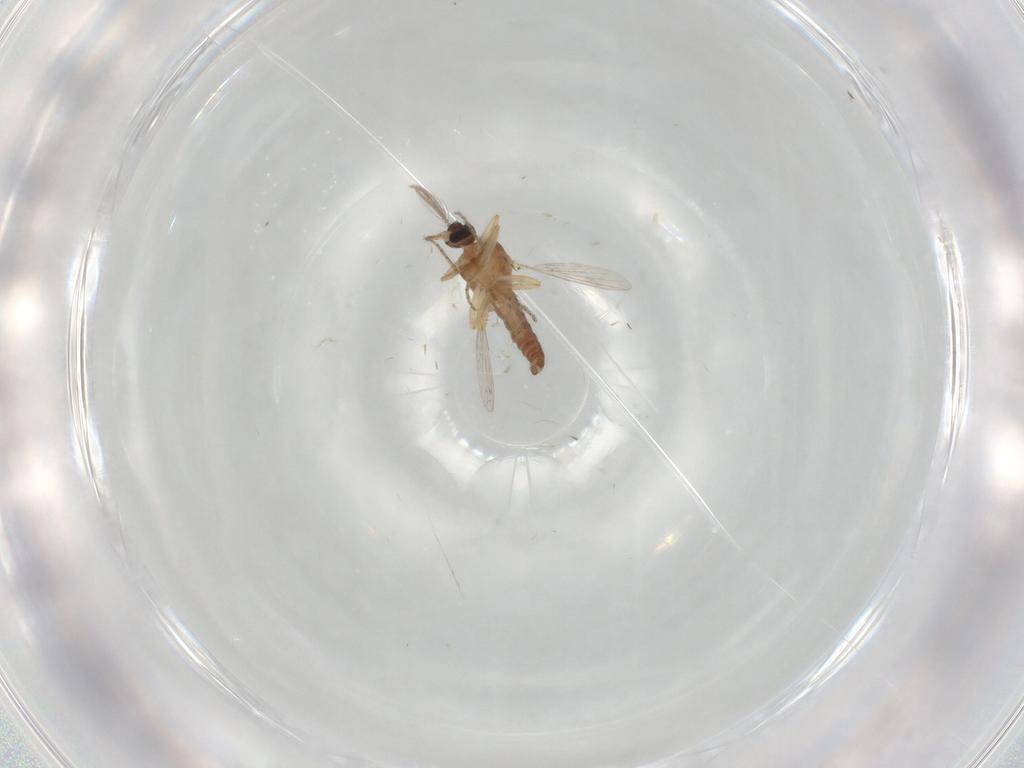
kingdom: Animalia
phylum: Arthropoda
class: Insecta
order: Diptera
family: Ceratopogonidae
